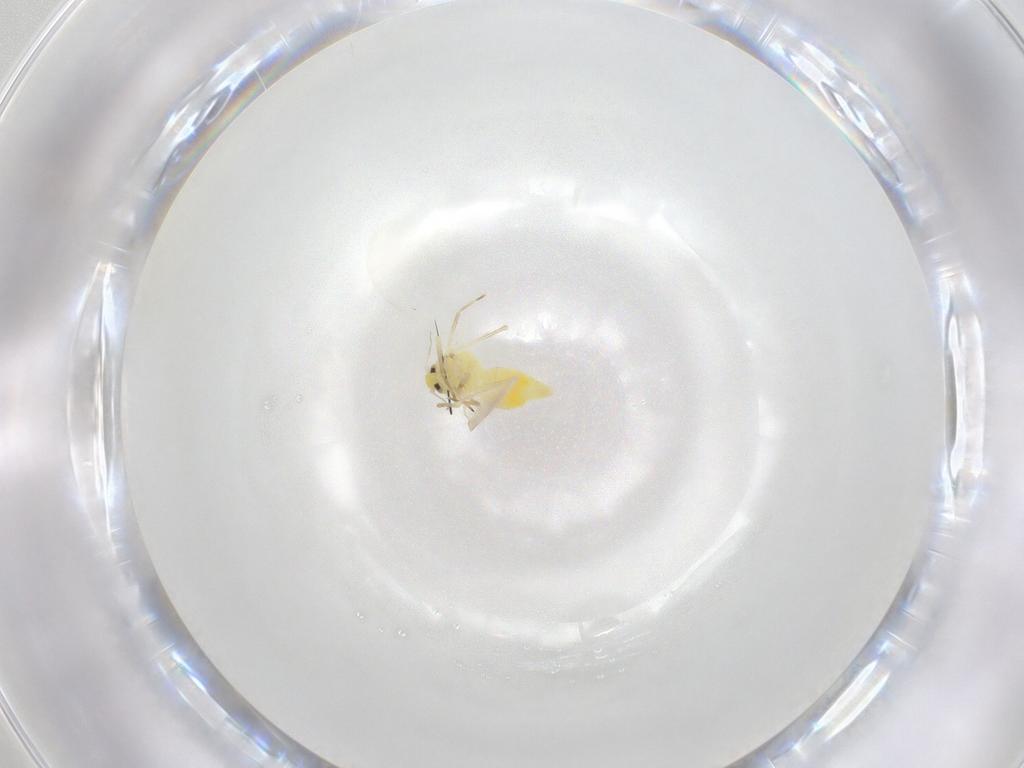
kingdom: Animalia
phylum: Arthropoda
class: Insecta
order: Hemiptera
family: Aleyrodidae
